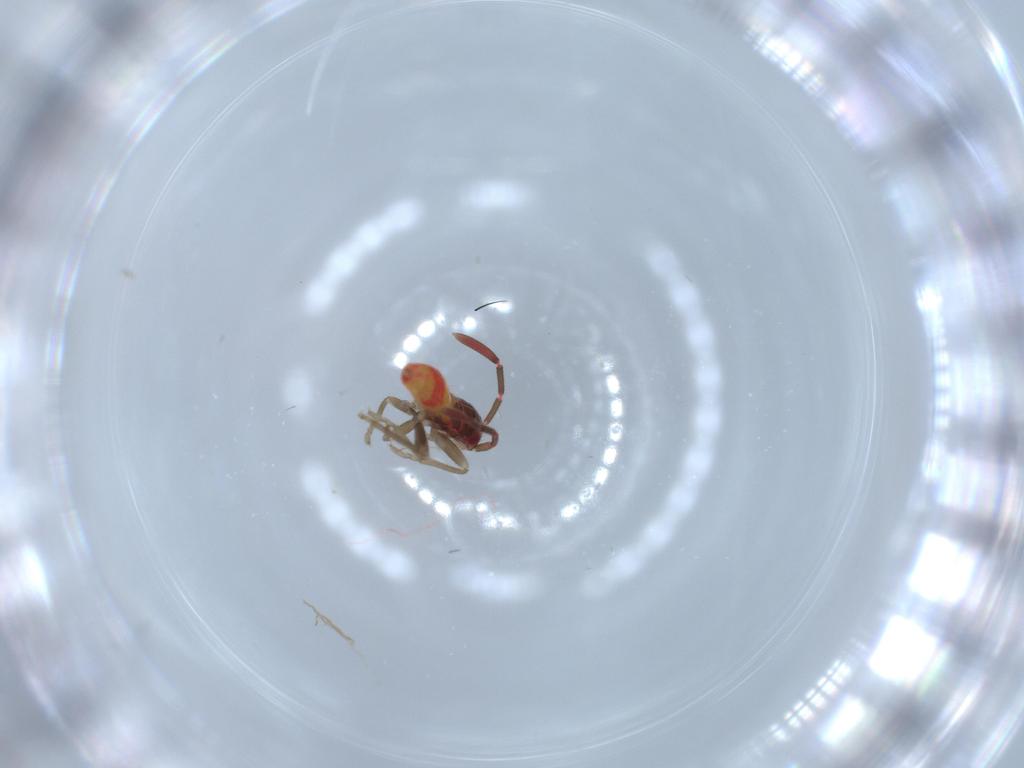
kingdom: Animalia
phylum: Arthropoda
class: Insecta
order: Hemiptera
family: Rhyparochromidae
